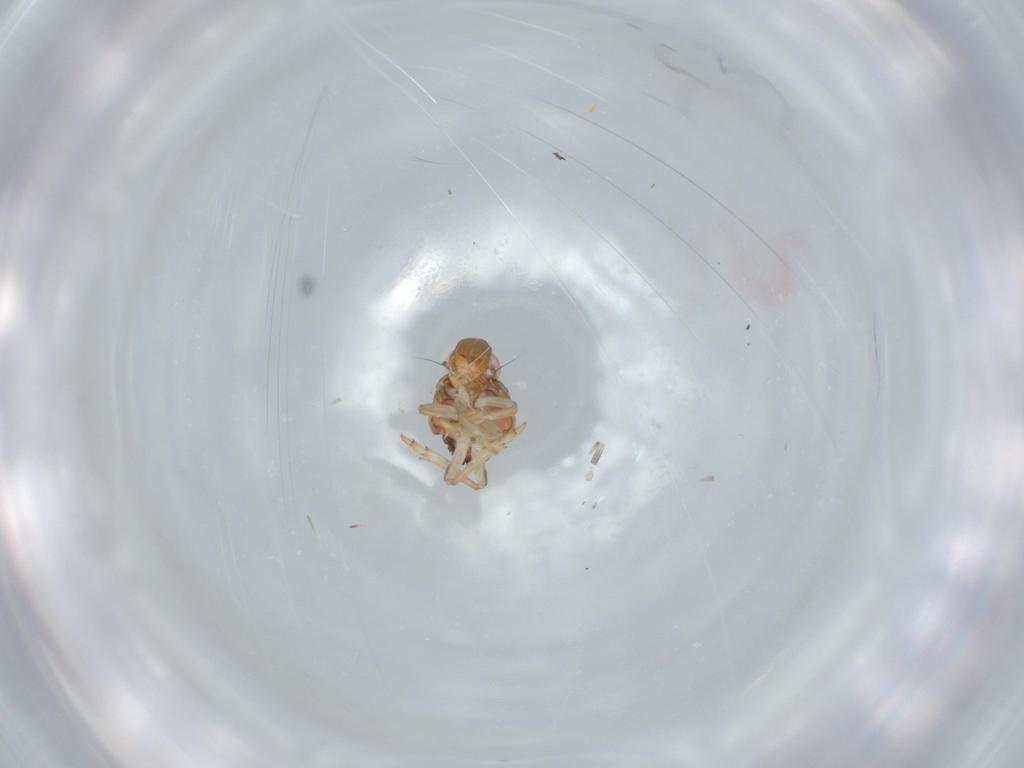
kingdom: Animalia
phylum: Arthropoda
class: Insecta
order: Hemiptera
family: Issidae
